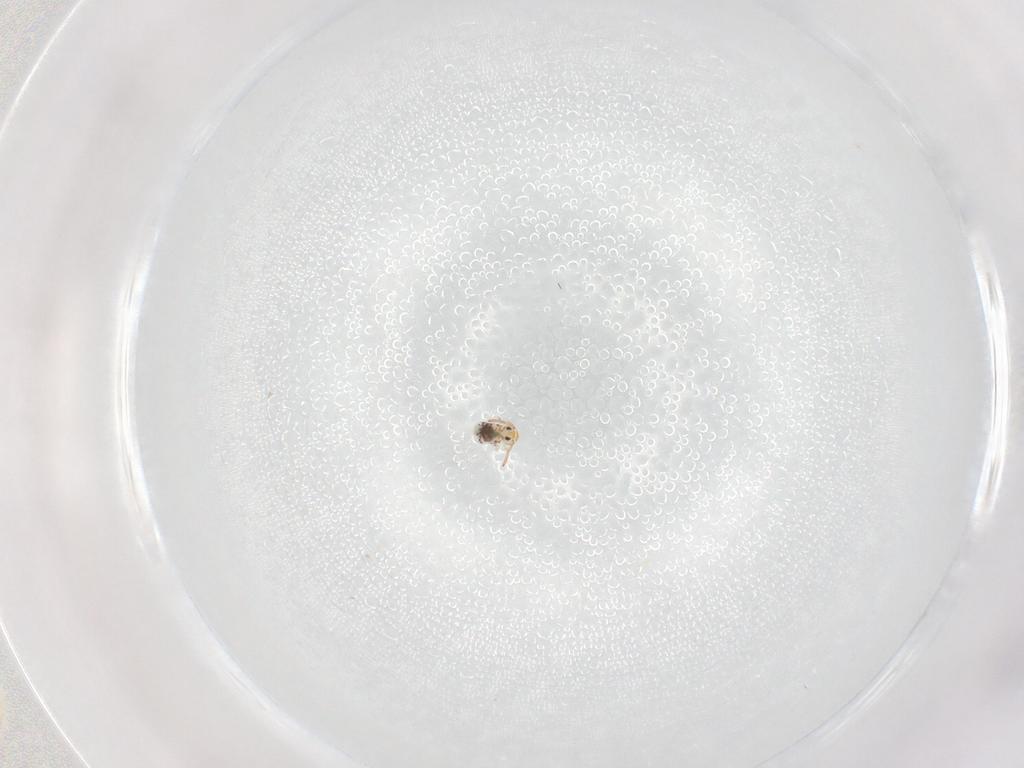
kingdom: Animalia
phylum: Arthropoda
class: Collembola
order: Symphypleona
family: Bourletiellidae
